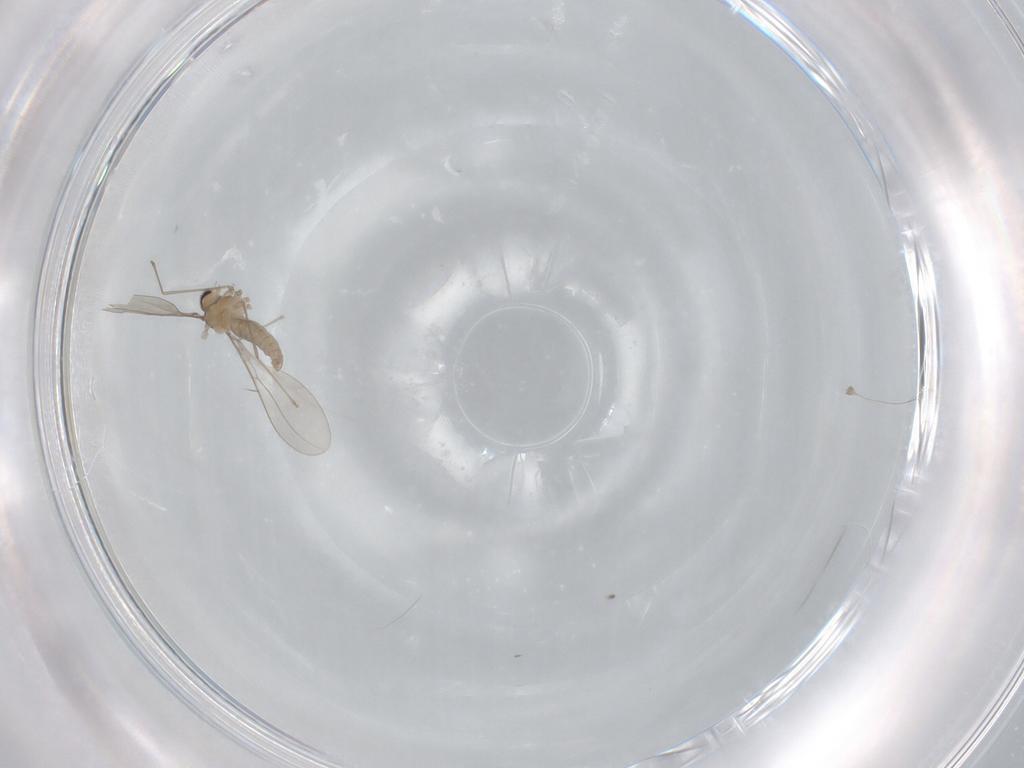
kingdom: Animalia
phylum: Arthropoda
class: Insecta
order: Diptera
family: Cecidomyiidae
